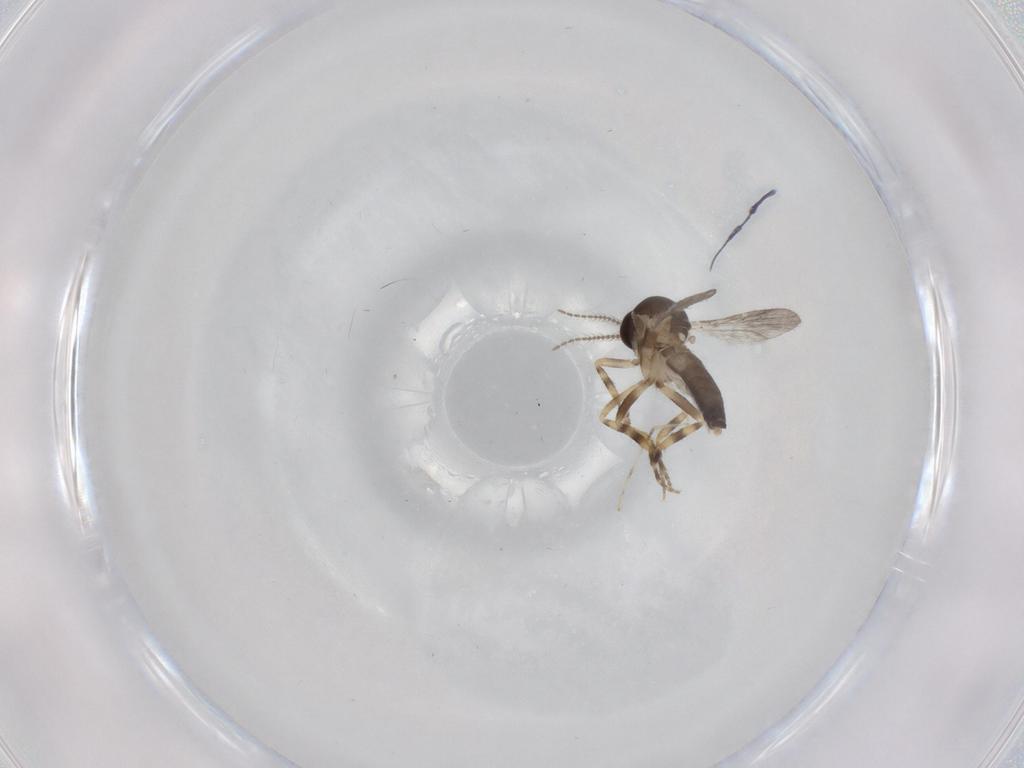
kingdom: Animalia
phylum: Arthropoda
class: Insecta
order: Diptera
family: Ceratopogonidae
